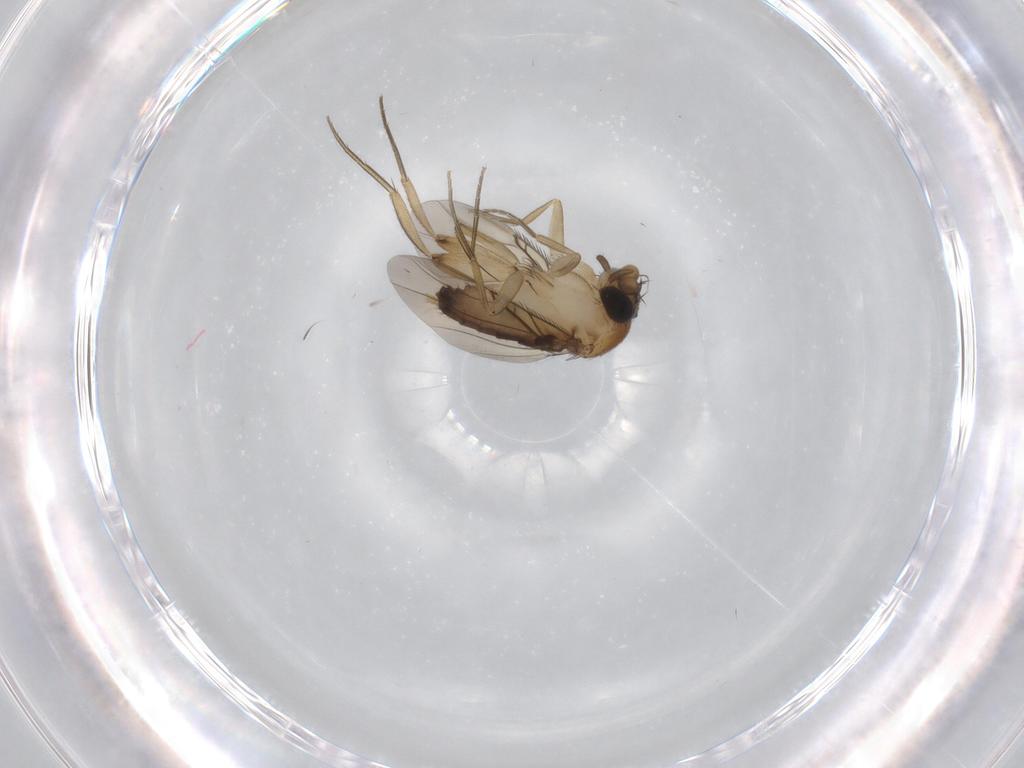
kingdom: Animalia
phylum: Arthropoda
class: Insecta
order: Diptera
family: Phoridae
